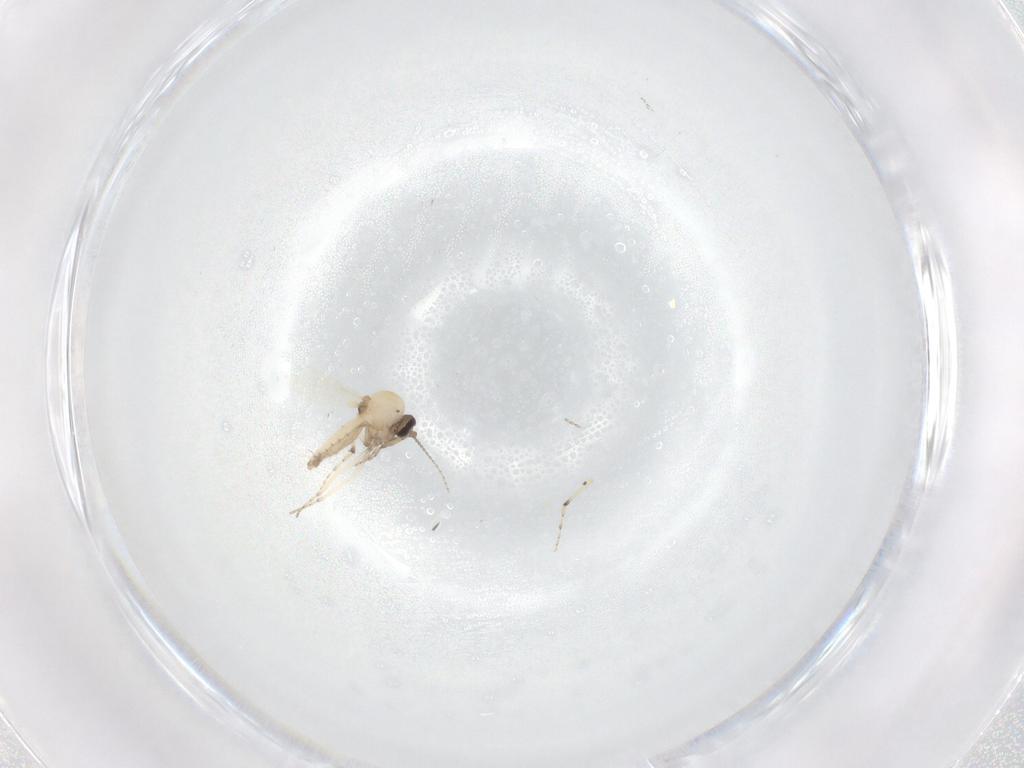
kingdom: Animalia
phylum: Arthropoda
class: Insecta
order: Diptera
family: Ceratopogonidae
